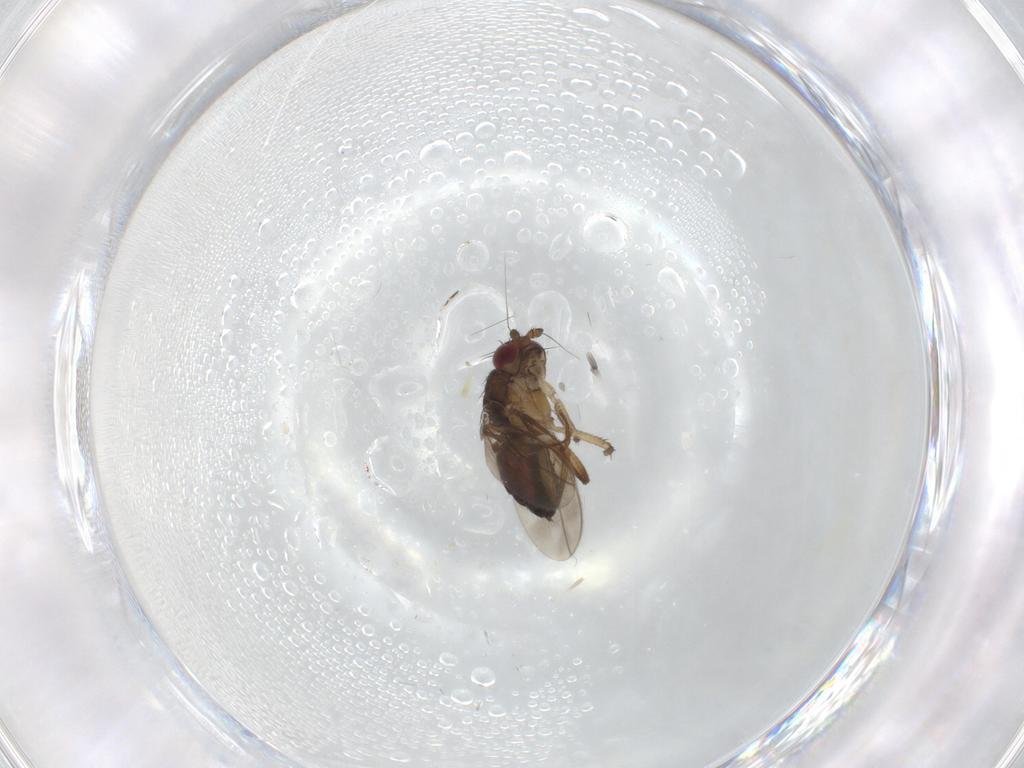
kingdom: Animalia
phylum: Arthropoda
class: Insecta
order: Diptera
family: Sphaeroceridae
